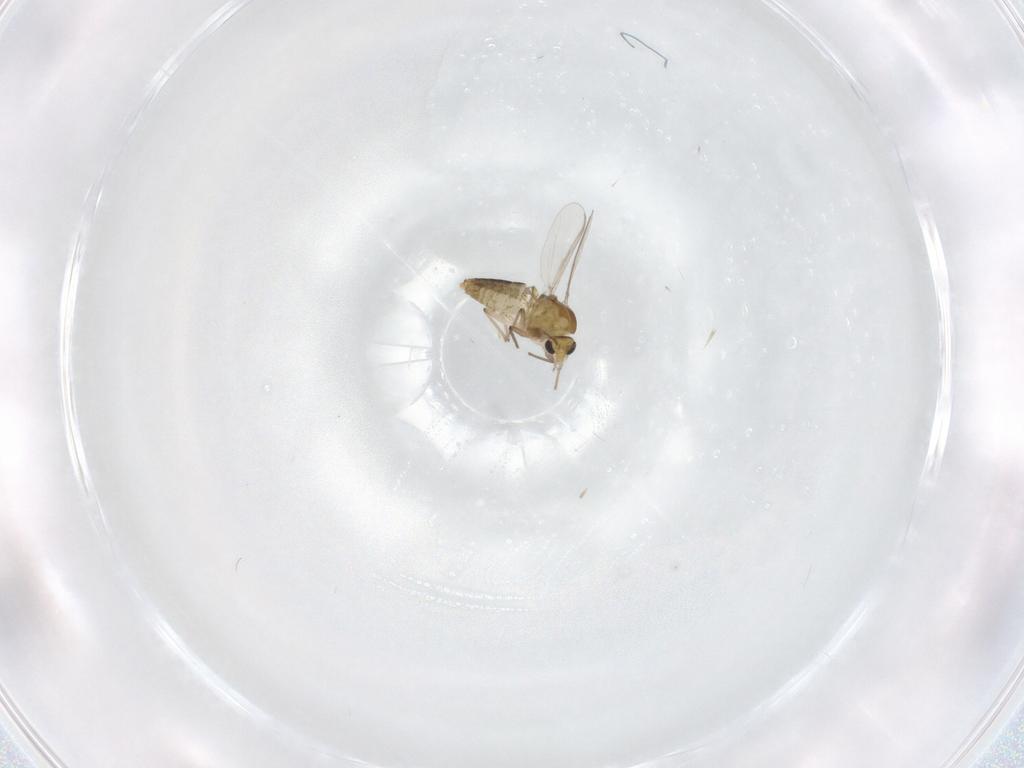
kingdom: Animalia
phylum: Arthropoda
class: Insecta
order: Diptera
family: Chironomidae
